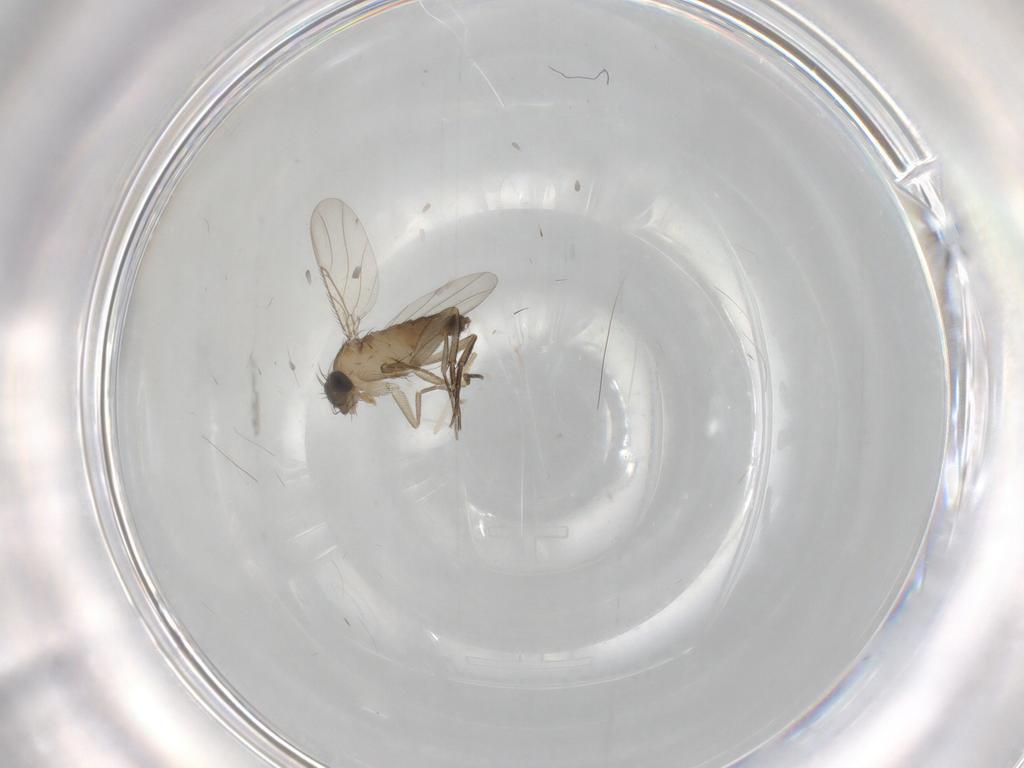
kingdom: Animalia
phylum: Arthropoda
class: Insecta
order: Diptera
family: Phoridae
